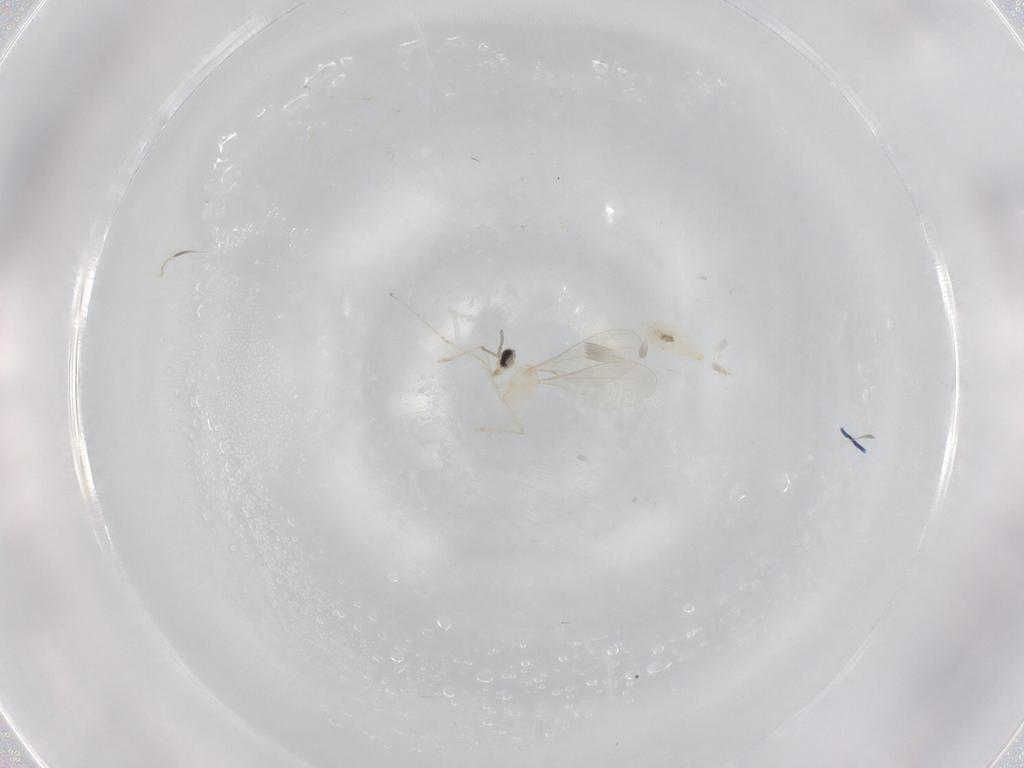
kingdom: Animalia
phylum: Arthropoda
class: Insecta
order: Diptera
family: Cecidomyiidae
